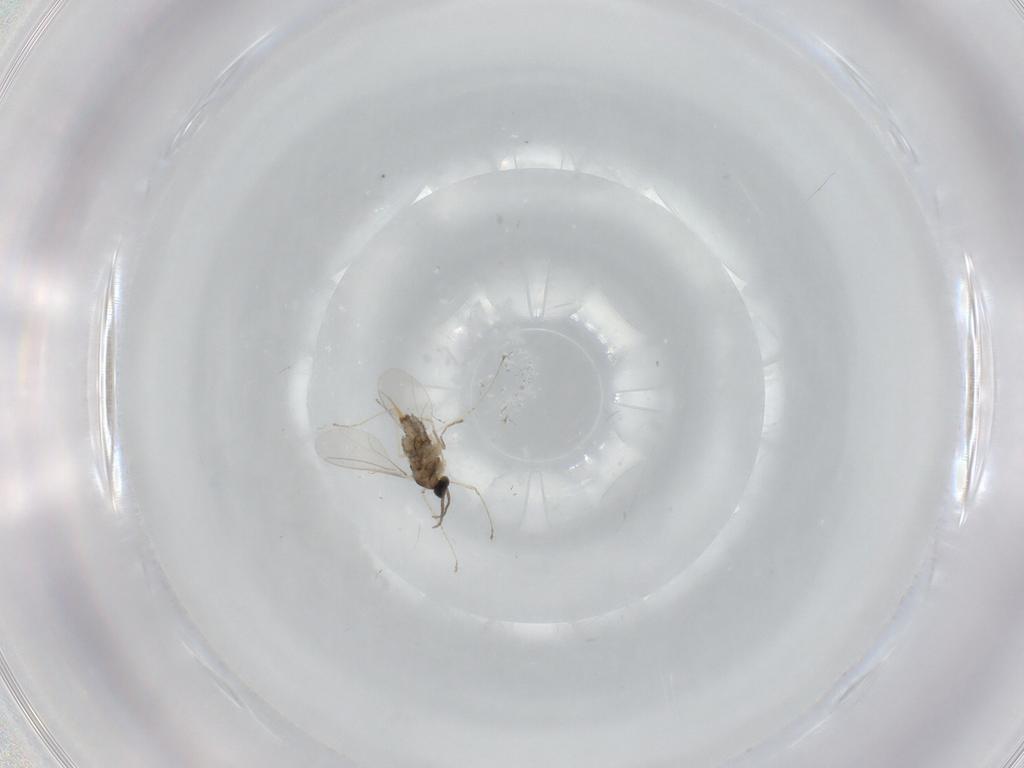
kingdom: Animalia
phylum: Arthropoda
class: Insecta
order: Diptera
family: Cecidomyiidae
